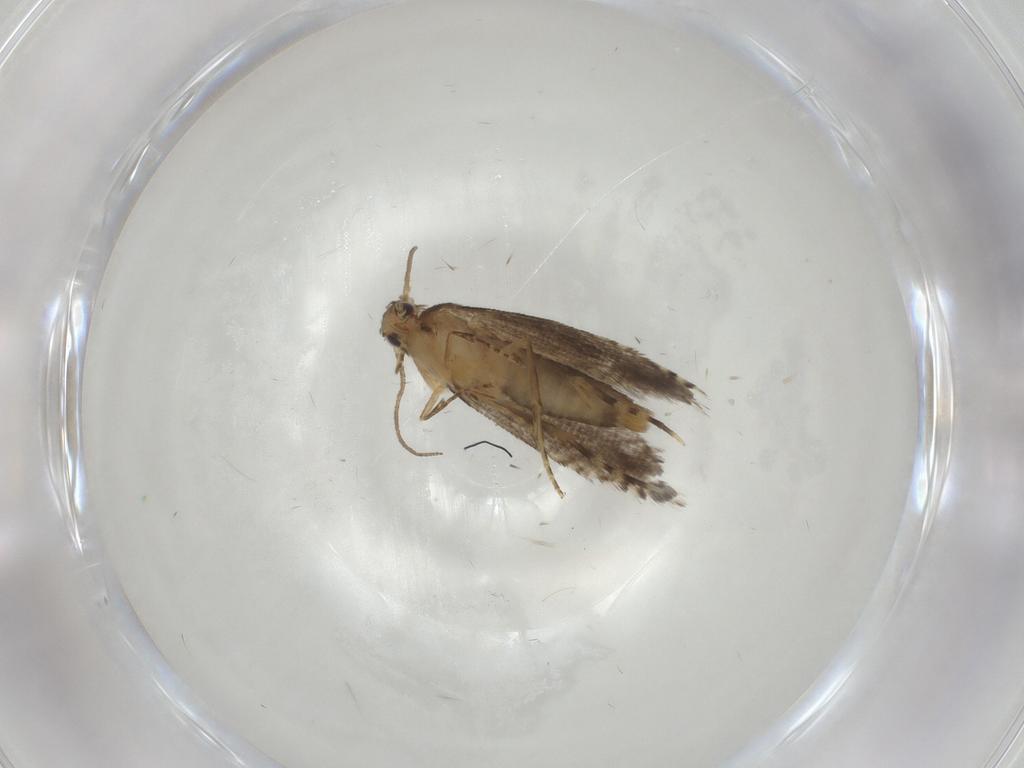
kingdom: Animalia
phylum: Arthropoda
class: Insecta
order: Lepidoptera
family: Glyphipterigidae
